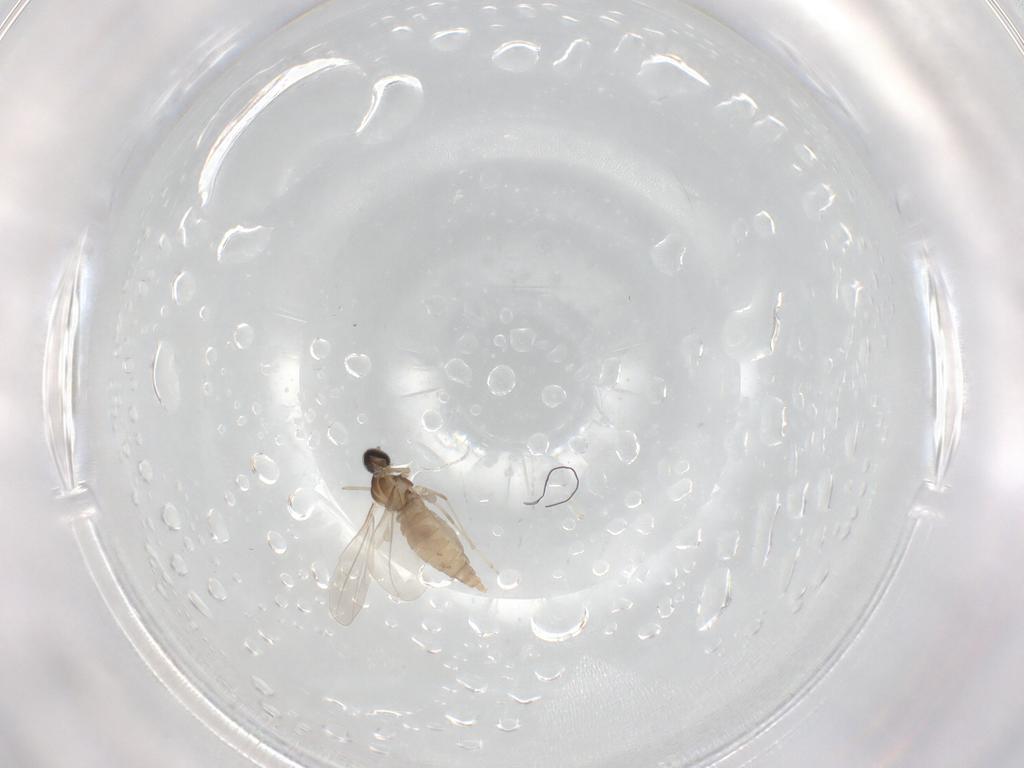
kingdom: Animalia
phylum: Arthropoda
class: Insecta
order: Diptera
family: Cecidomyiidae
